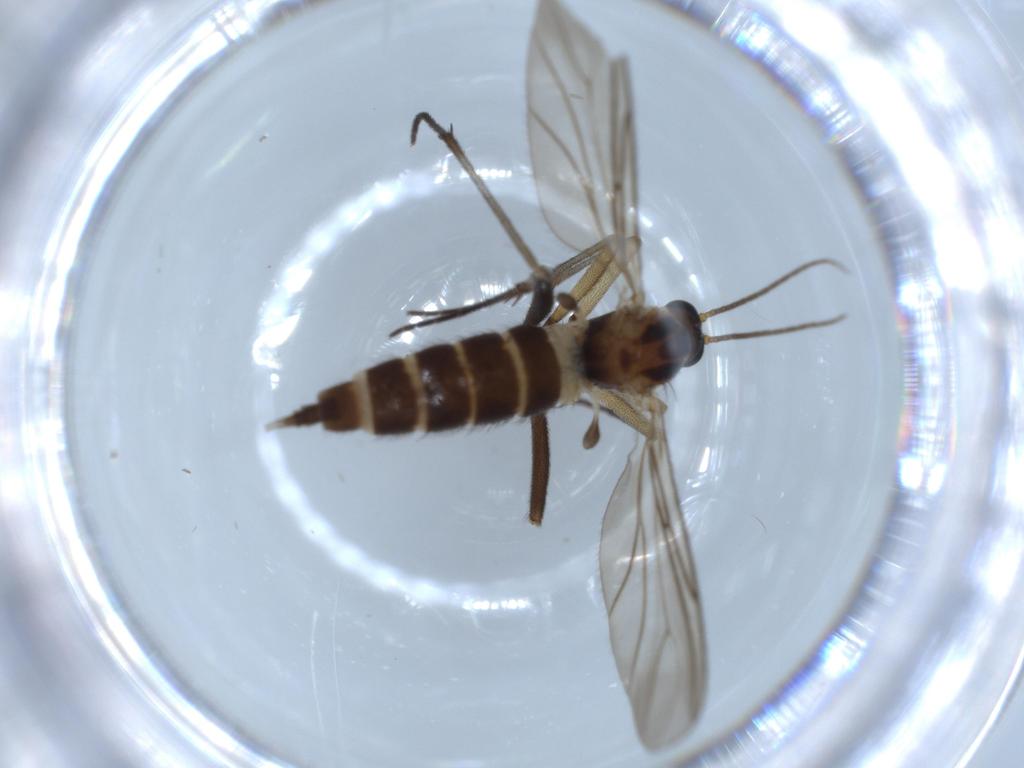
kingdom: Animalia
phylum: Arthropoda
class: Insecta
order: Diptera
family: Sciaridae
